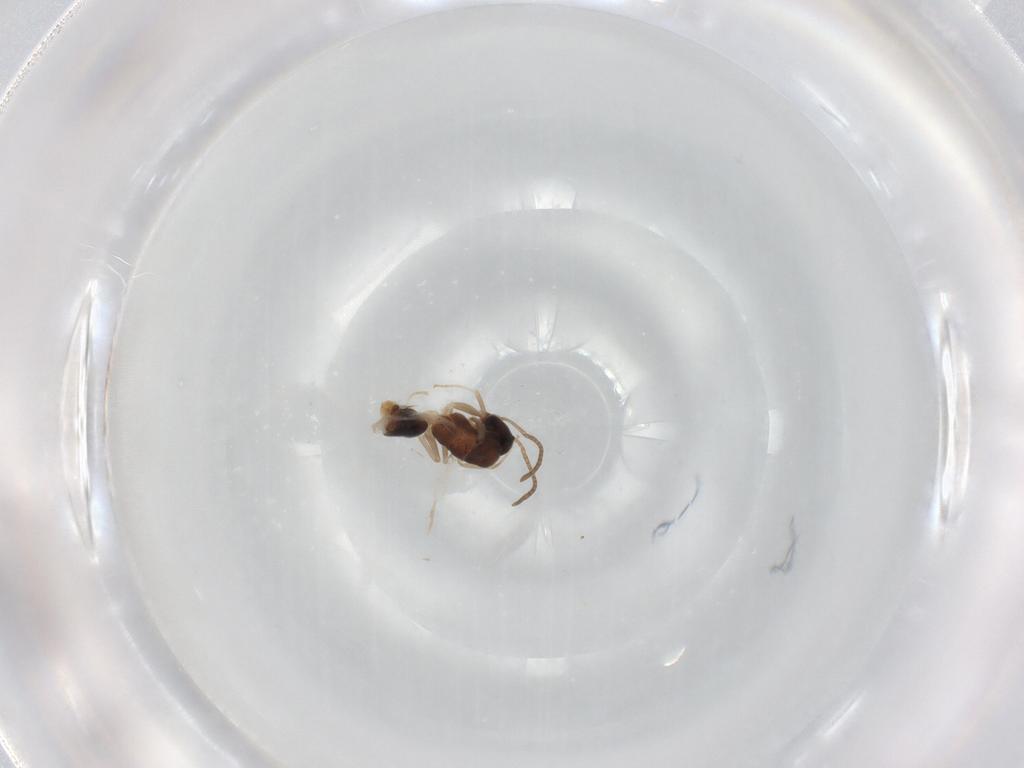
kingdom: Animalia
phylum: Arthropoda
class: Insecta
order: Hymenoptera
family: Formicidae
